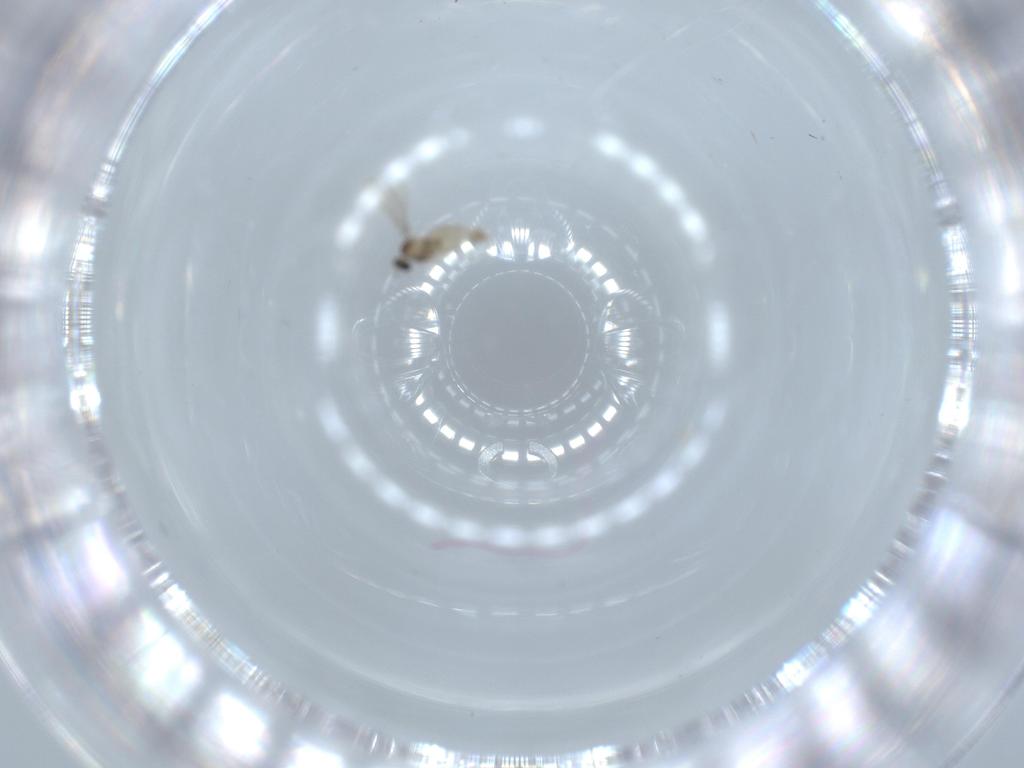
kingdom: Animalia
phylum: Arthropoda
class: Insecta
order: Diptera
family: Cecidomyiidae
